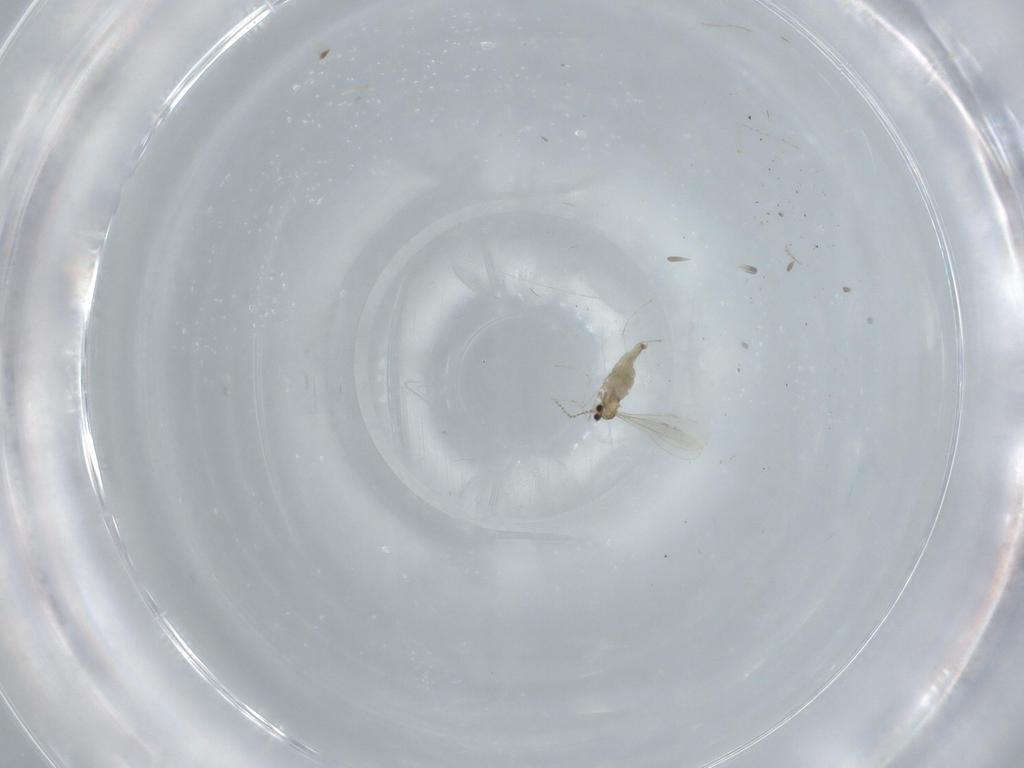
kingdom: Animalia
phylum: Arthropoda
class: Insecta
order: Diptera
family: Cecidomyiidae
